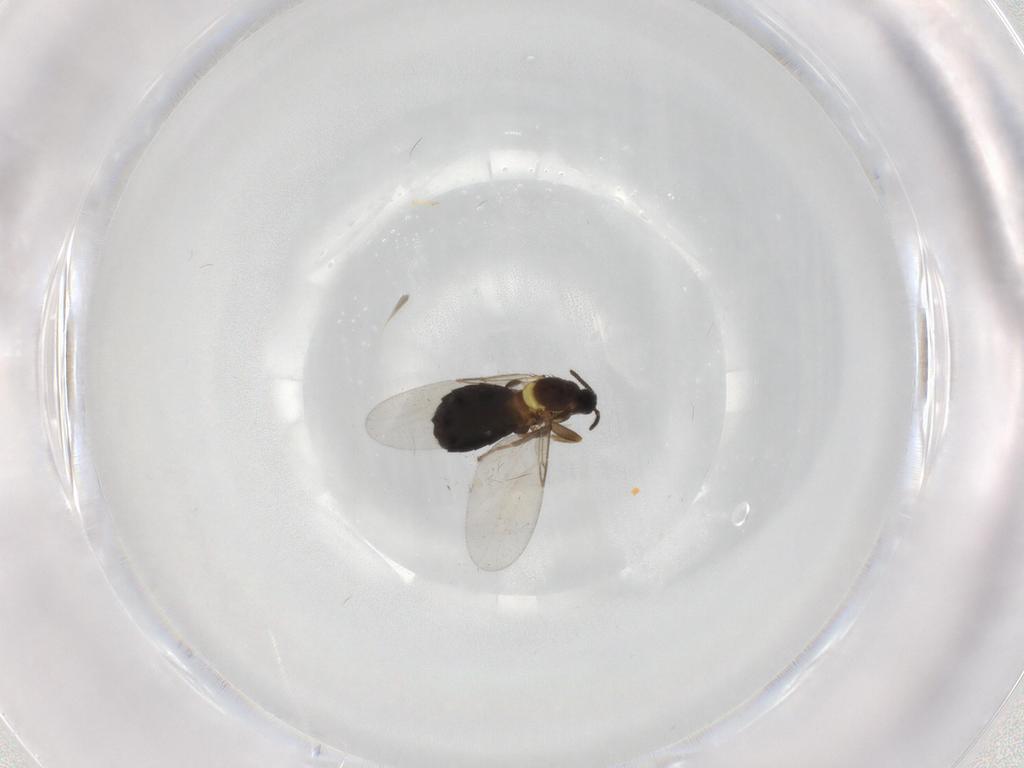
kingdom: Animalia
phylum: Arthropoda
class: Insecta
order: Diptera
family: Scatopsidae
